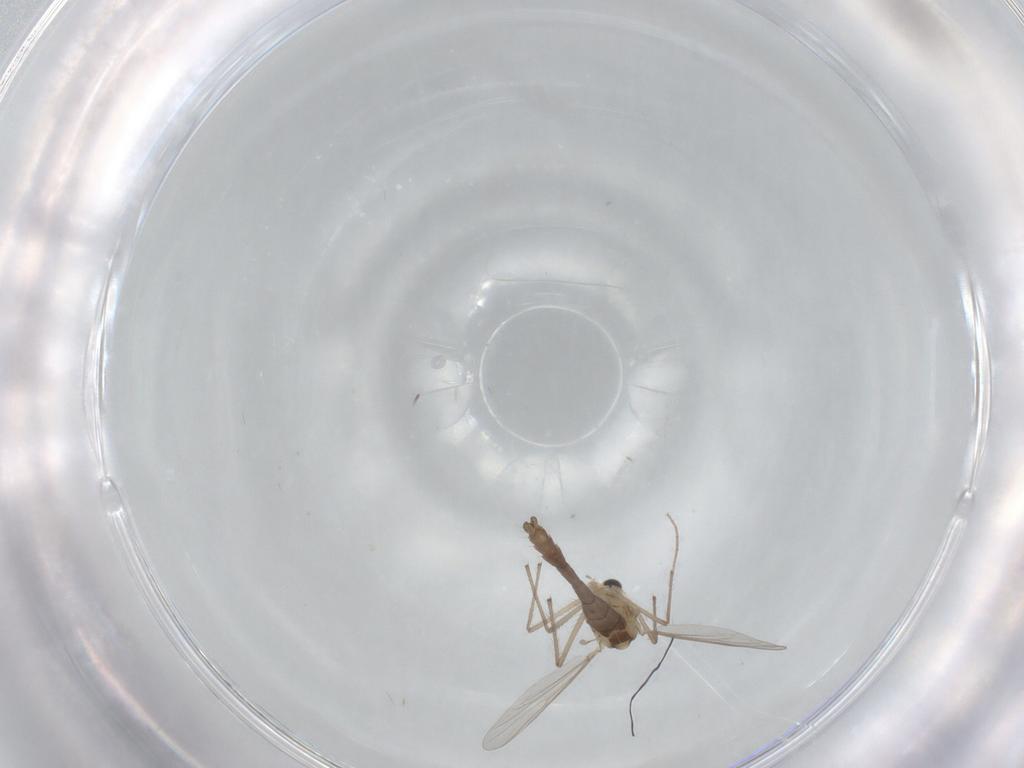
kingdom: Animalia
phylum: Arthropoda
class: Insecta
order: Diptera
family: Chironomidae
